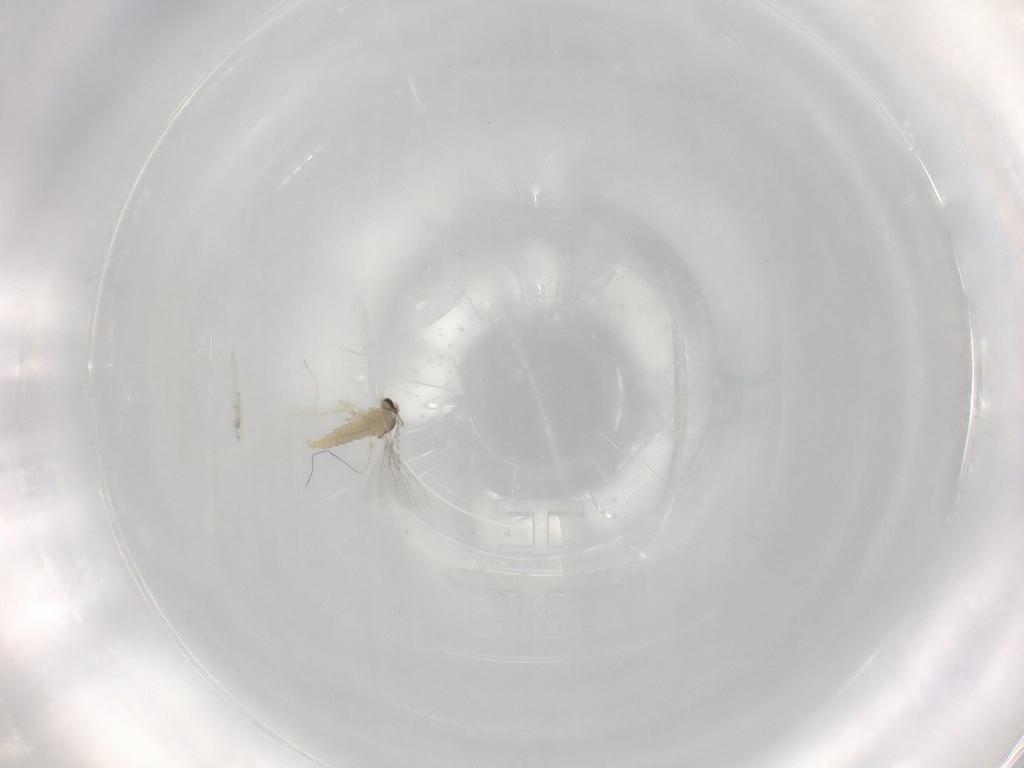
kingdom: Animalia
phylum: Arthropoda
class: Insecta
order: Diptera
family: Cecidomyiidae
